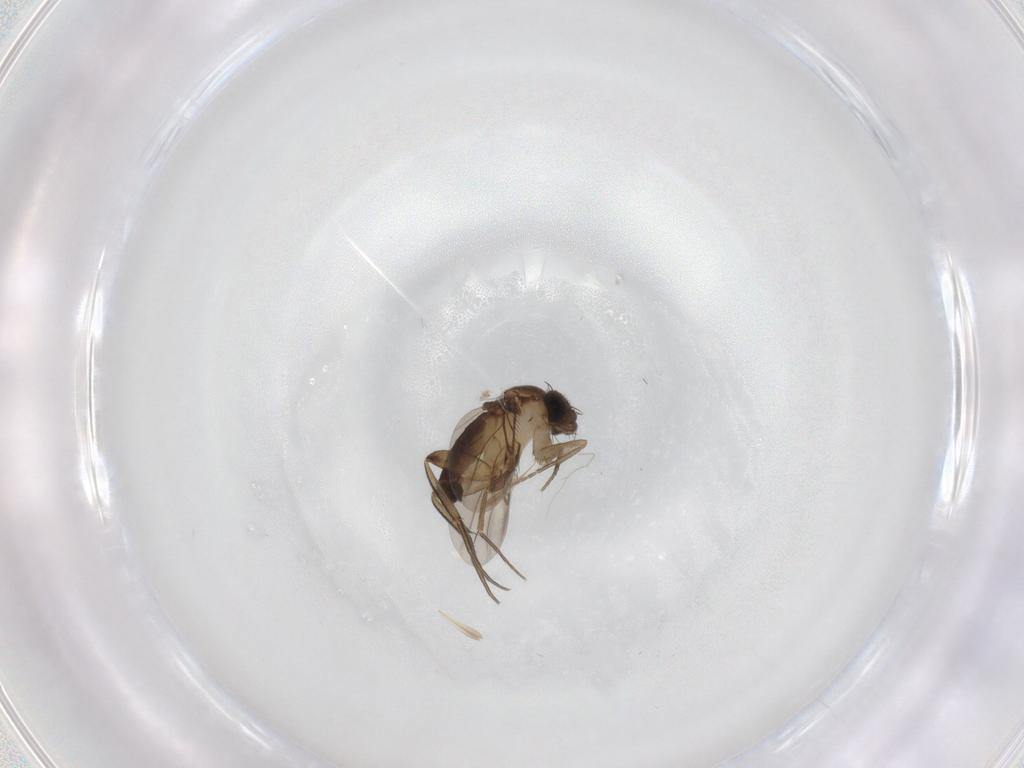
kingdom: Animalia
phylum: Arthropoda
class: Insecta
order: Diptera
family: Phoridae
